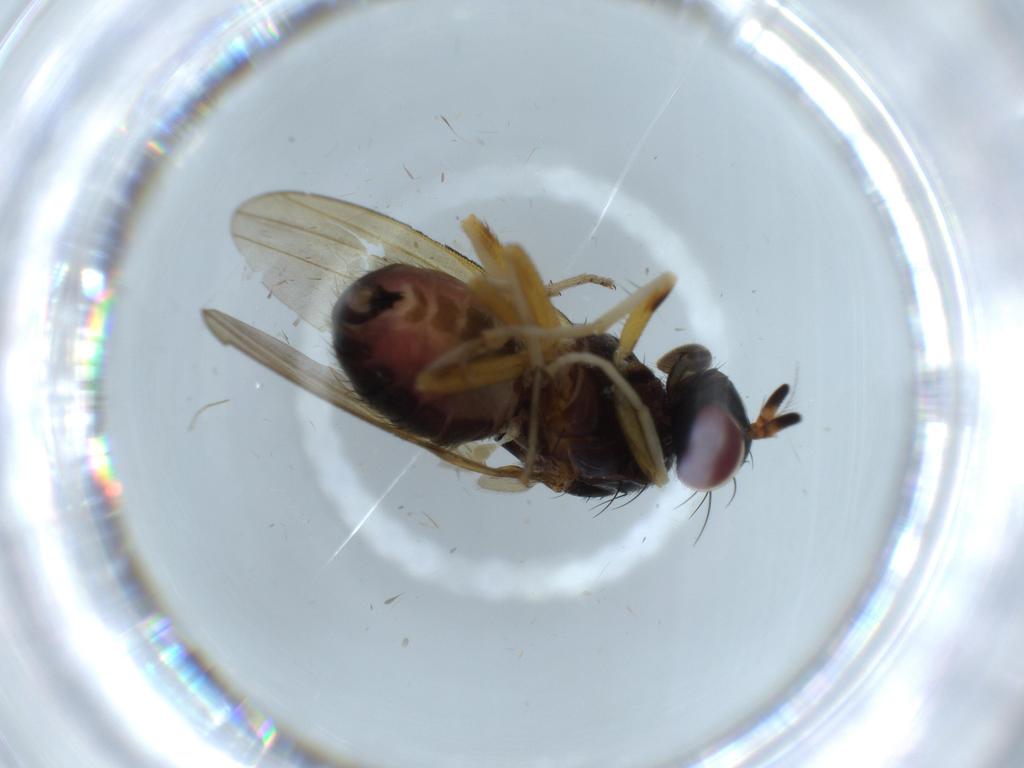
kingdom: Animalia
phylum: Arthropoda
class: Insecta
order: Diptera
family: Cecidomyiidae
